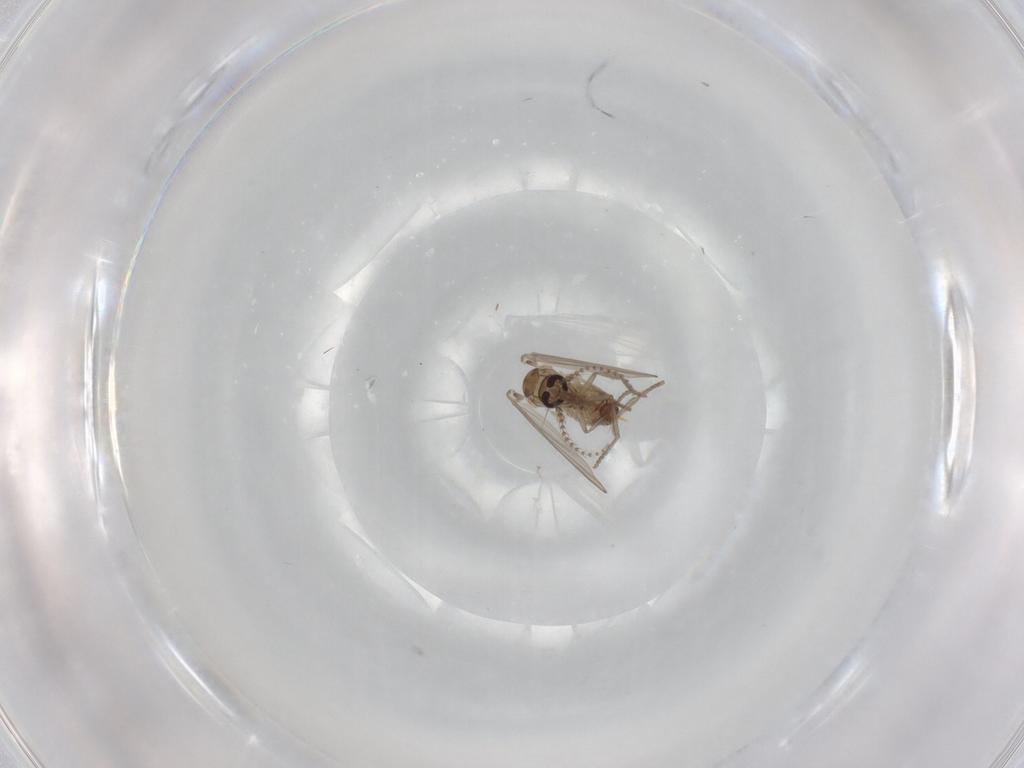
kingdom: Animalia
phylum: Arthropoda
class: Insecta
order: Diptera
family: Psychodidae
